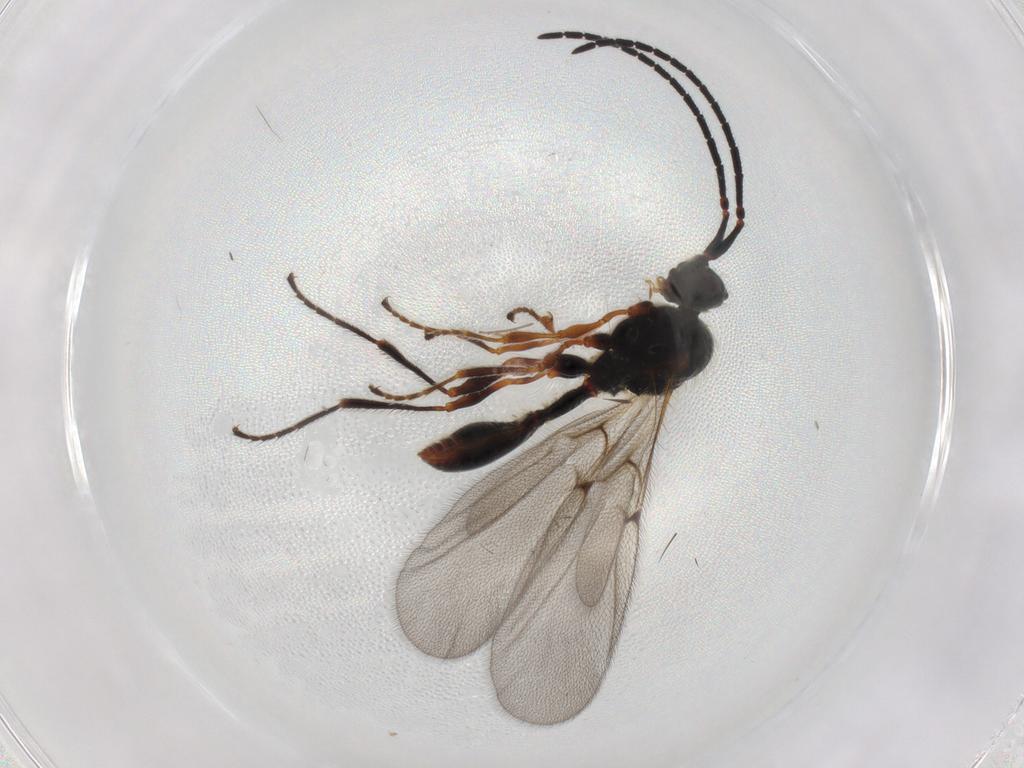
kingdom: Animalia
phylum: Arthropoda
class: Insecta
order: Hymenoptera
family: Diapriidae
